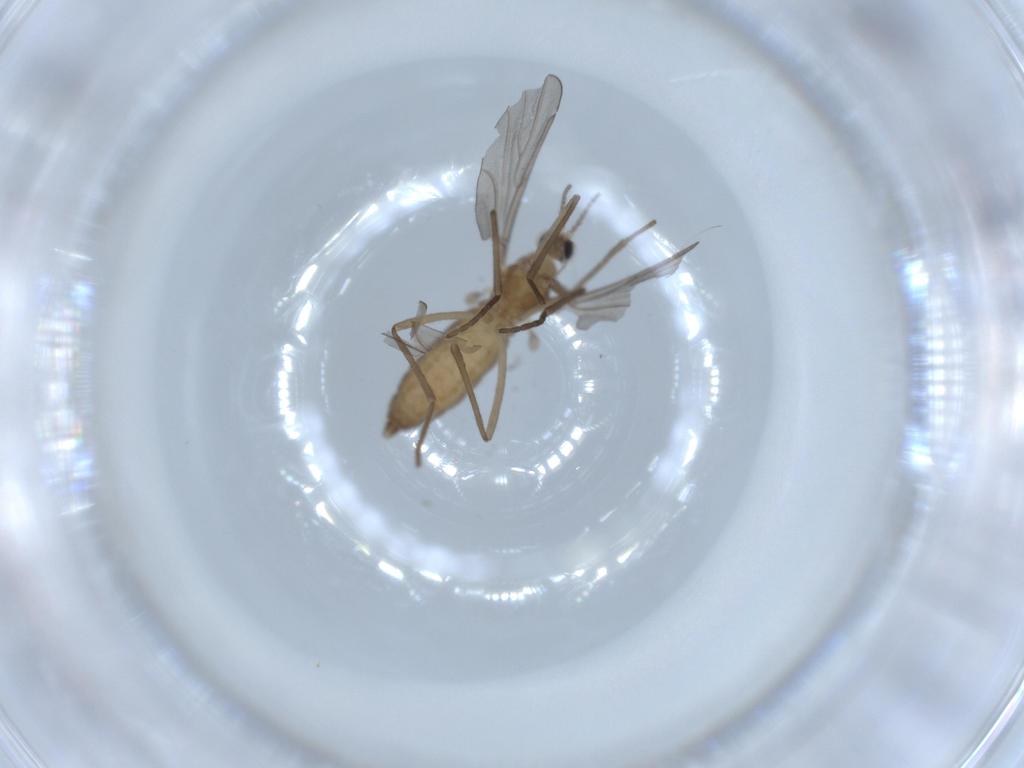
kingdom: Animalia
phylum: Arthropoda
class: Insecta
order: Diptera
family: Cecidomyiidae
